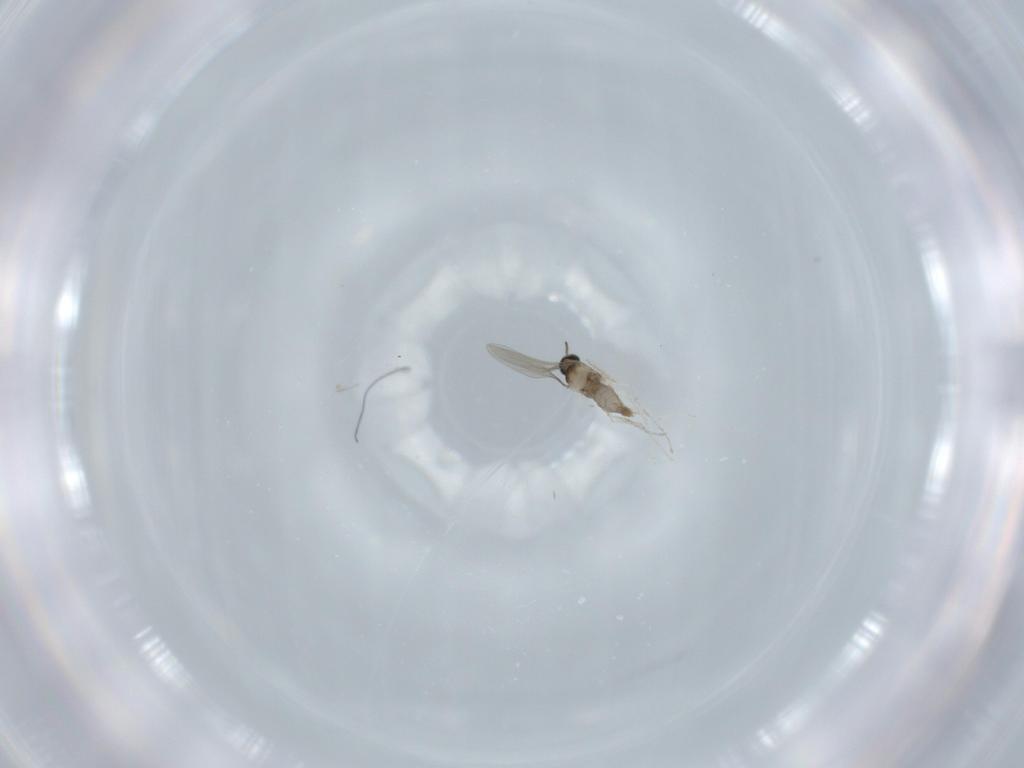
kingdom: Animalia
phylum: Arthropoda
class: Insecta
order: Diptera
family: Cecidomyiidae
